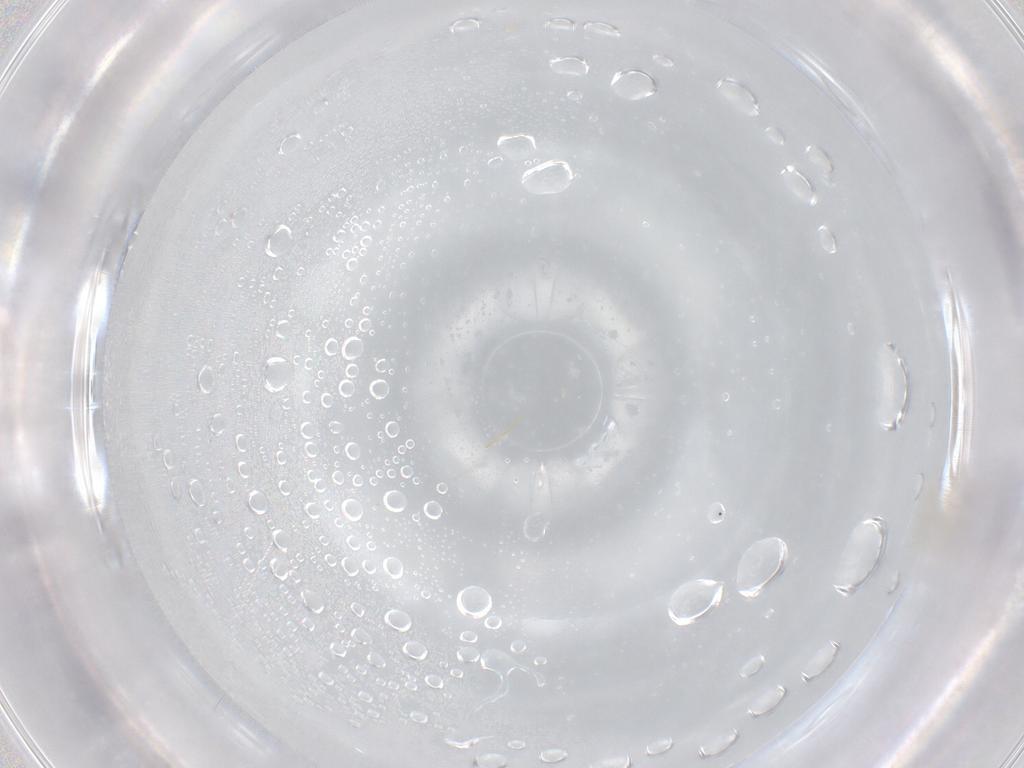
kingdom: Animalia
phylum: Arthropoda
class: Insecta
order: Diptera
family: Cecidomyiidae
